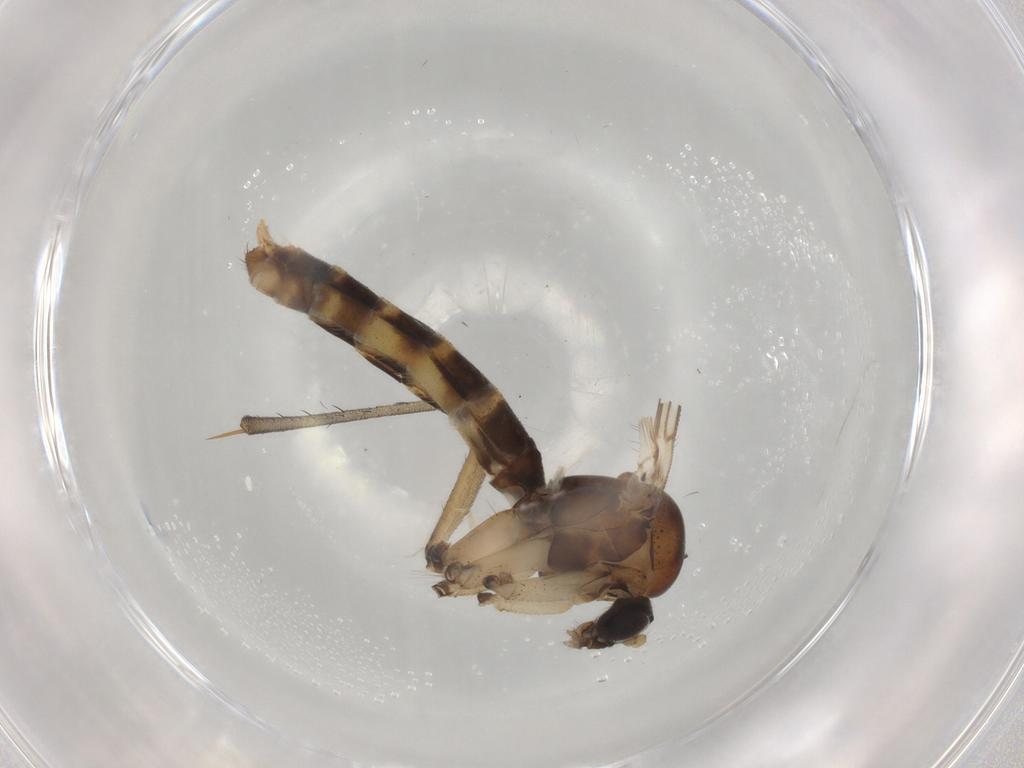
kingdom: Animalia
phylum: Arthropoda
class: Insecta
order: Diptera
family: Mycetophilidae
